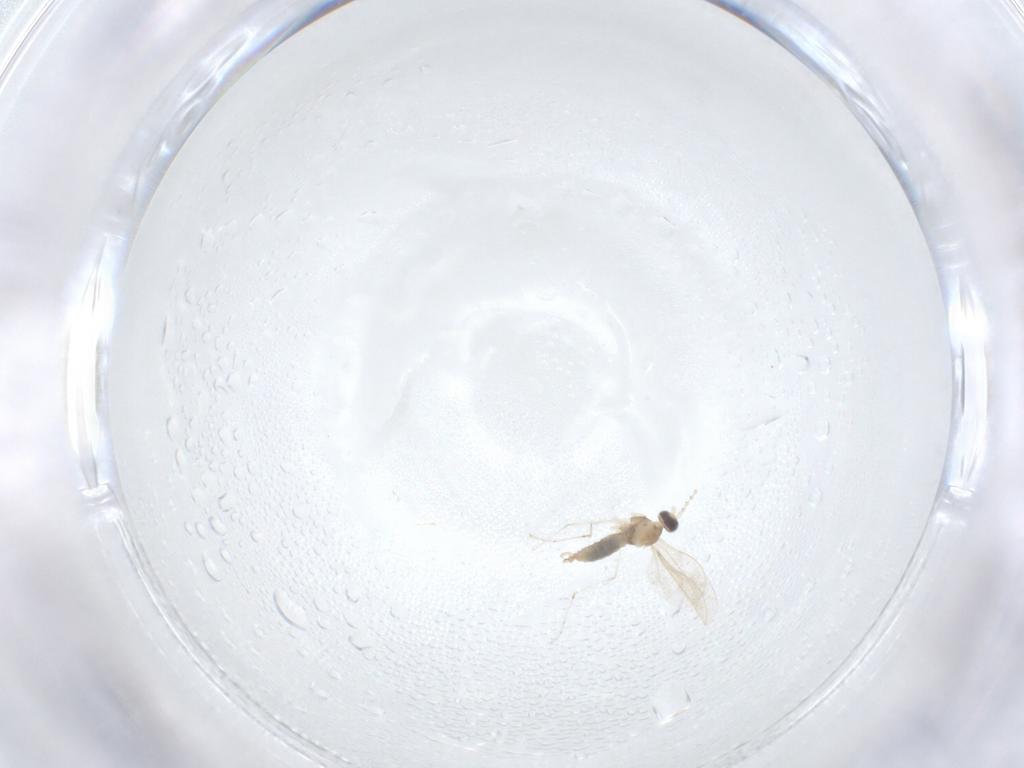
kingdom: Animalia
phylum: Arthropoda
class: Insecta
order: Diptera
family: Cecidomyiidae
